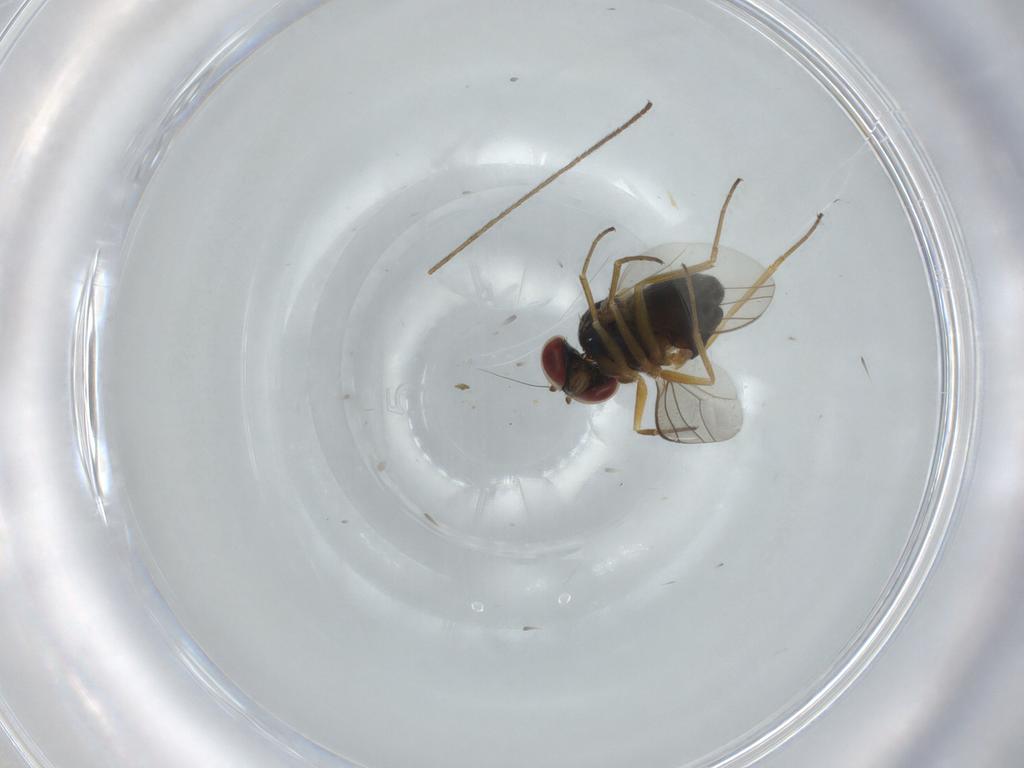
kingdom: Animalia
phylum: Arthropoda
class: Insecta
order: Diptera
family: Dolichopodidae
